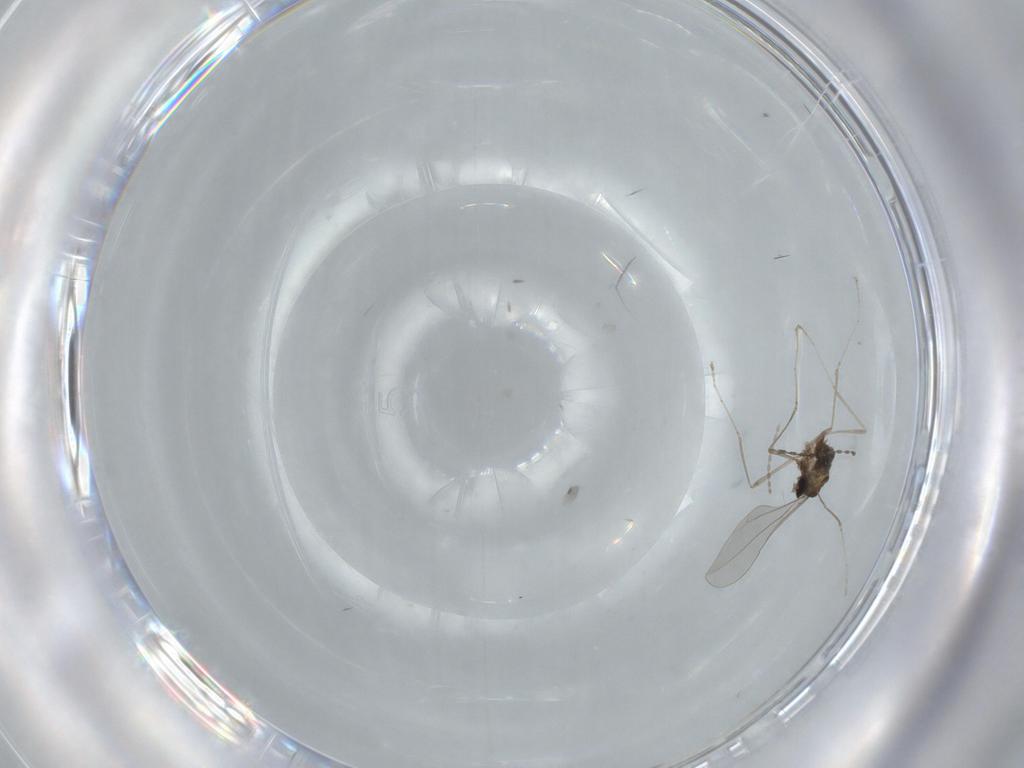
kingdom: Animalia
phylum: Arthropoda
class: Insecta
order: Diptera
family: Cecidomyiidae
